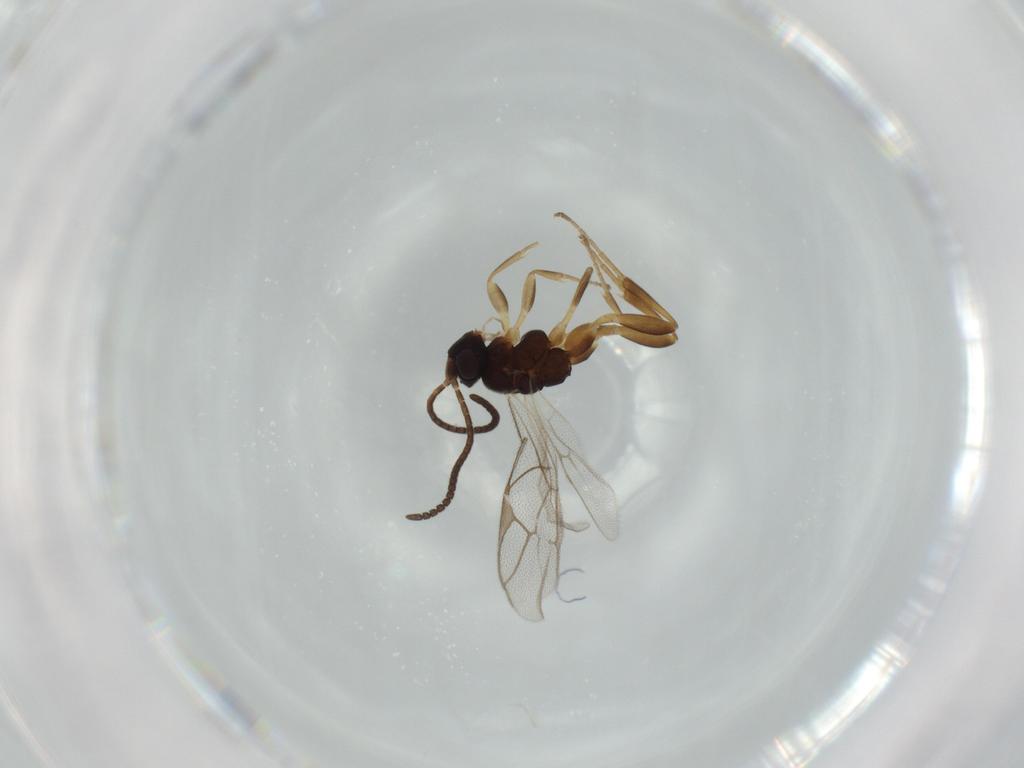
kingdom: Animalia
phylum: Arthropoda
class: Insecta
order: Hymenoptera
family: Ichneumonidae
